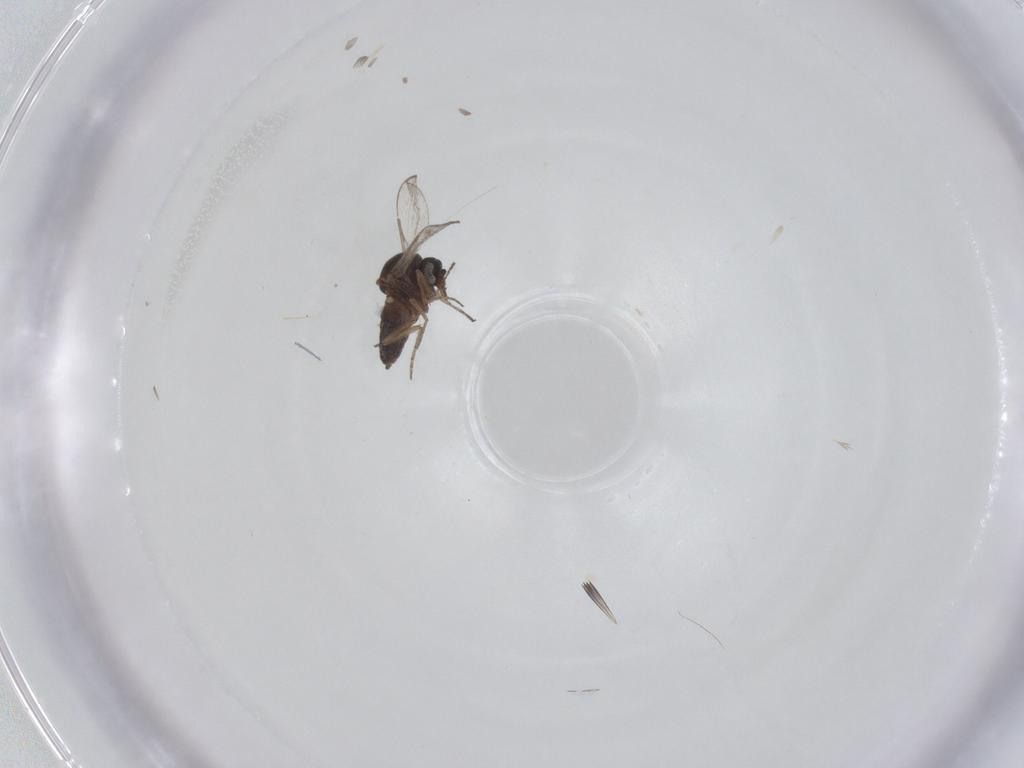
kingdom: Animalia
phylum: Arthropoda
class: Insecta
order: Diptera
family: Ceratopogonidae
